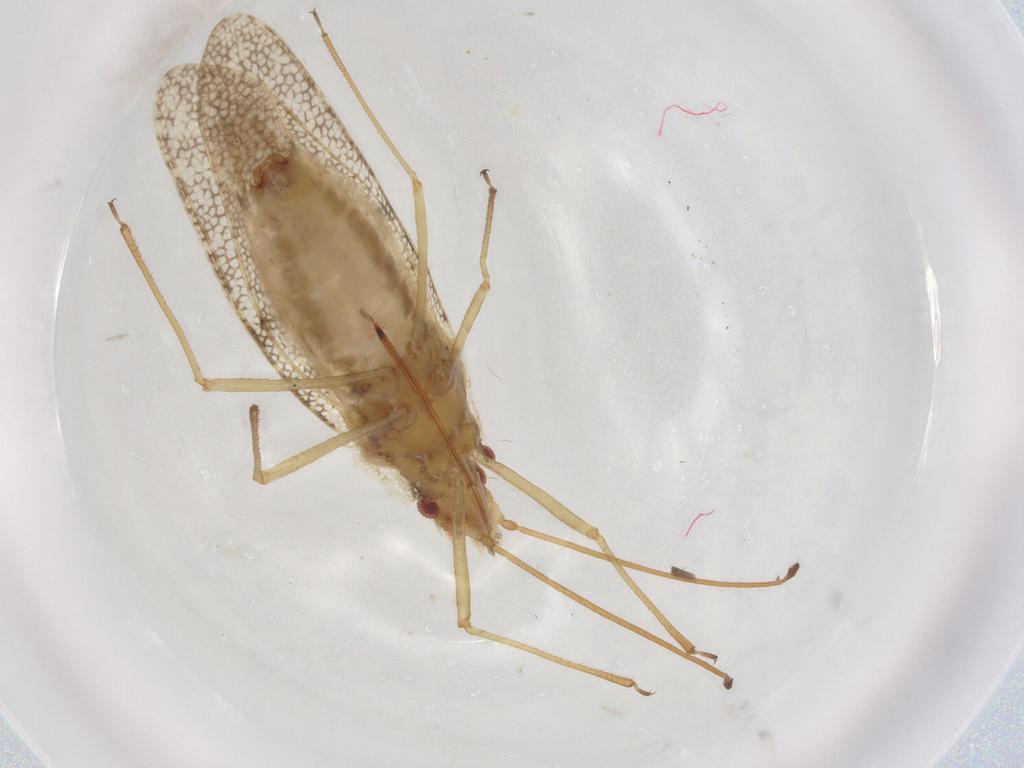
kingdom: Animalia
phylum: Arthropoda
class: Insecta
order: Hemiptera
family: Tingidae
